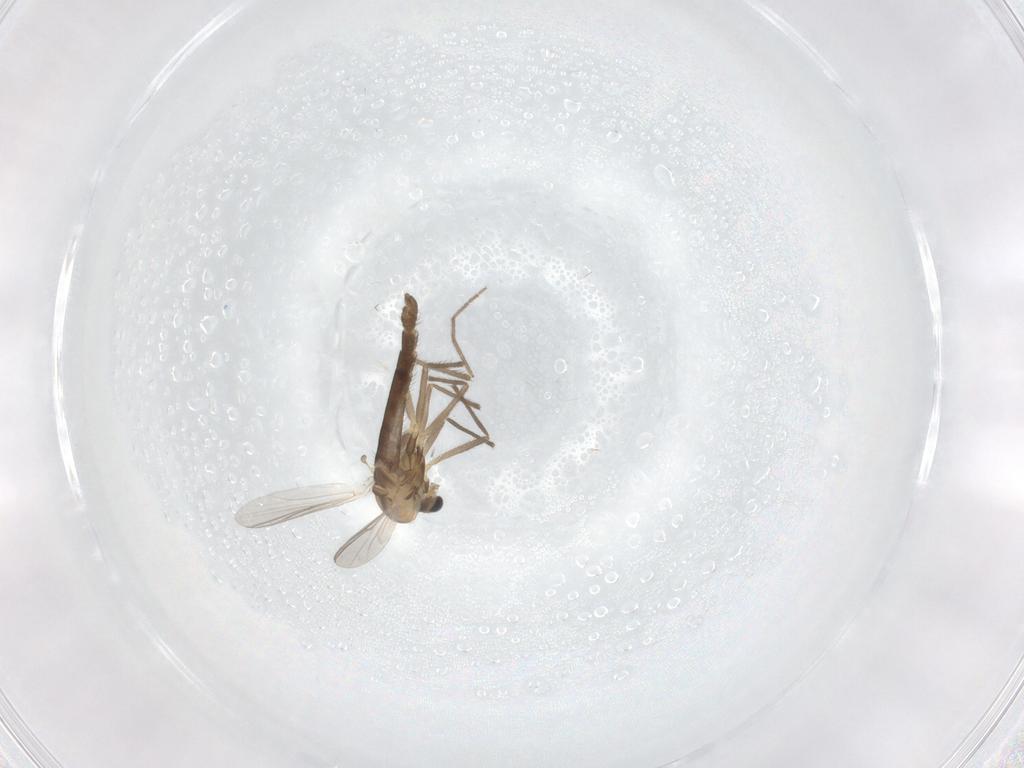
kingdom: Animalia
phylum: Arthropoda
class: Insecta
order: Diptera
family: Chironomidae
